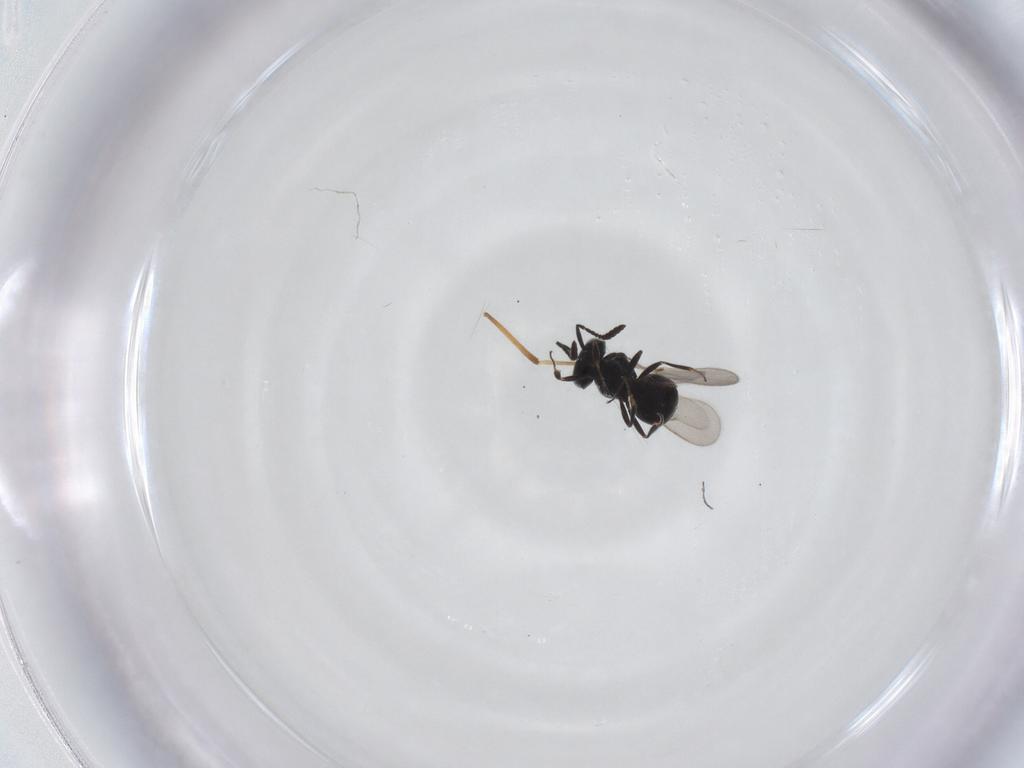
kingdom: Animalia
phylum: Arthropoda
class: Insecta
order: Hymenoptera
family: Scelionidae
